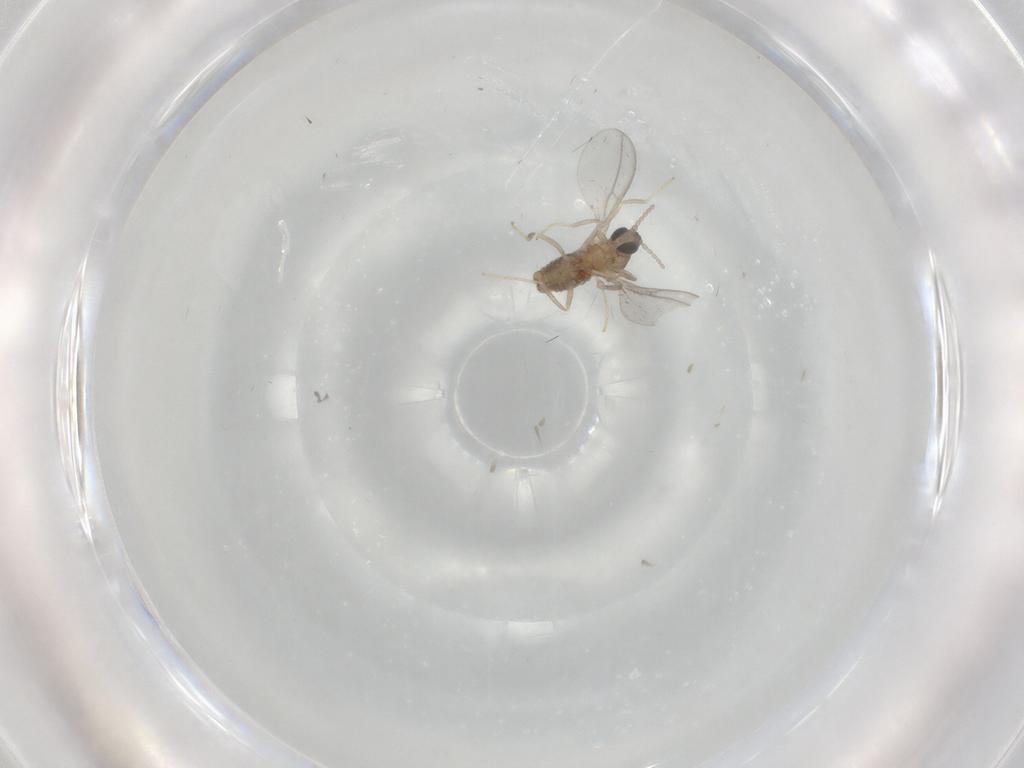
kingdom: Animalia
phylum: Arthropoda
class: Insecta
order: Diptera
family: Cecidomyiidae
